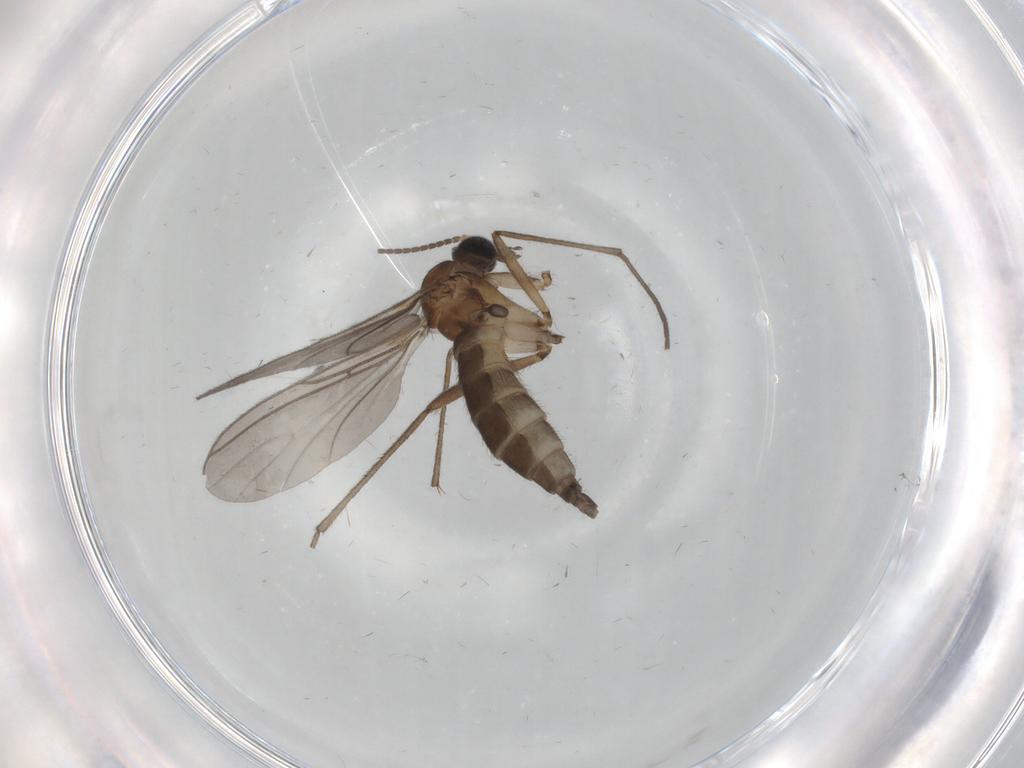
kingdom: Animalia
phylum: Arthropoda
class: Insecta
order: Diptera
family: Sciaridae
